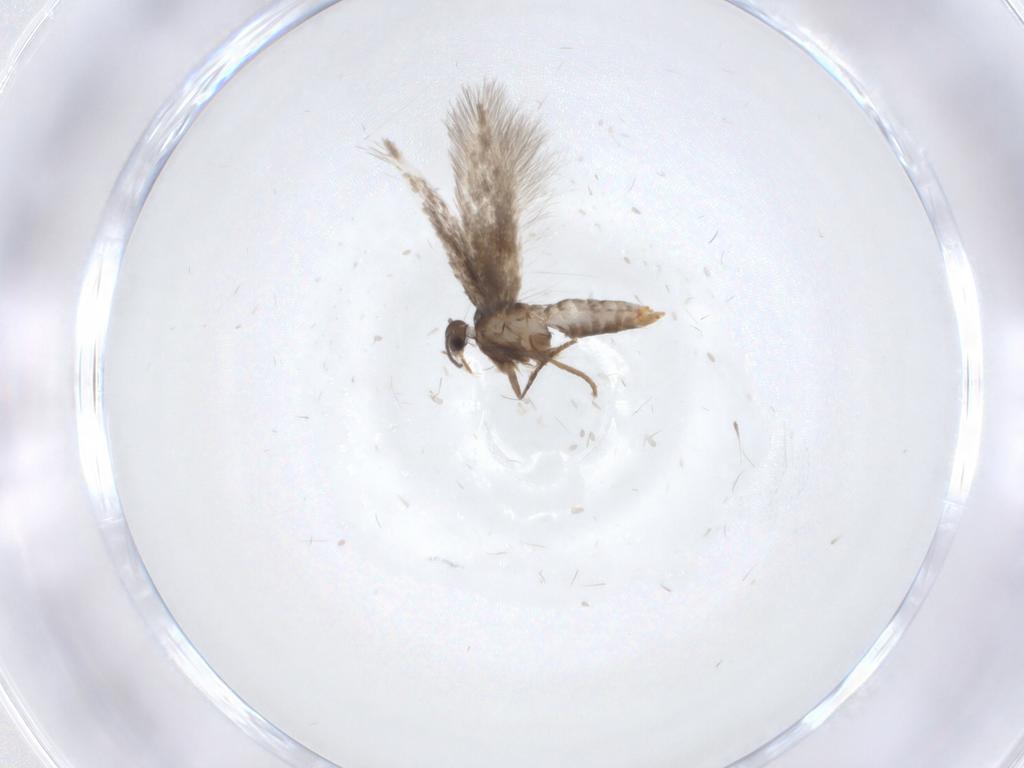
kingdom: Animalia
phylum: Arthropoda
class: Insecta
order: Lepidoptera
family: Heliozelidae
